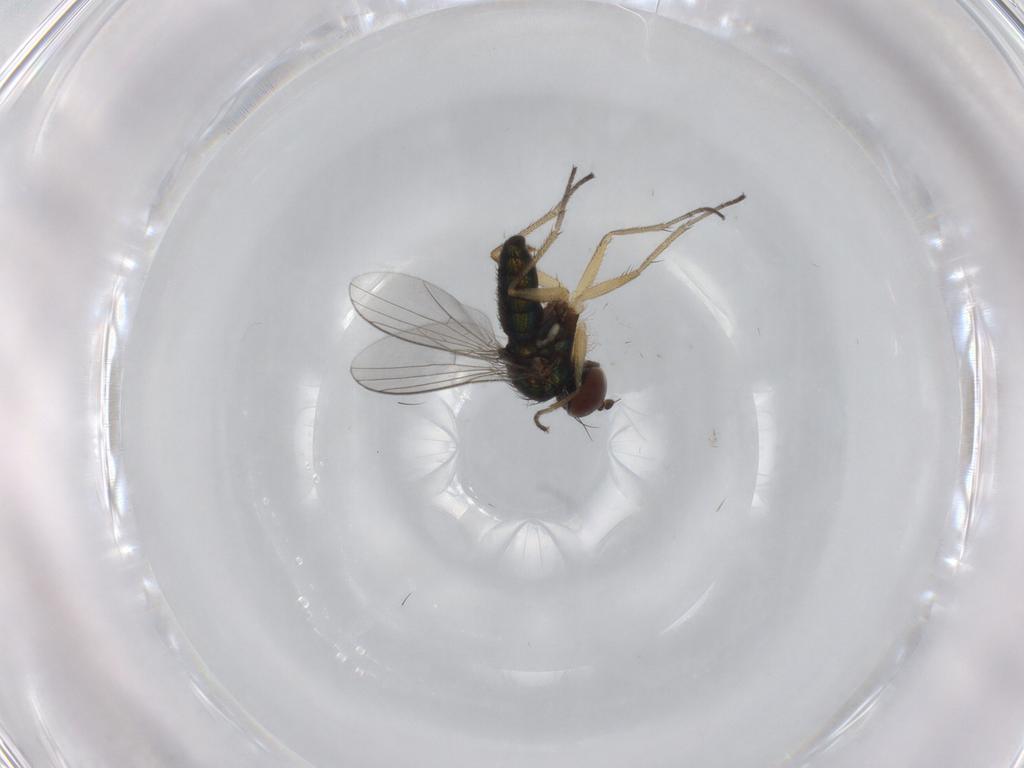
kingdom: Animalia
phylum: Arthropoda
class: Insecta
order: Diptera
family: Dolichopodidae
